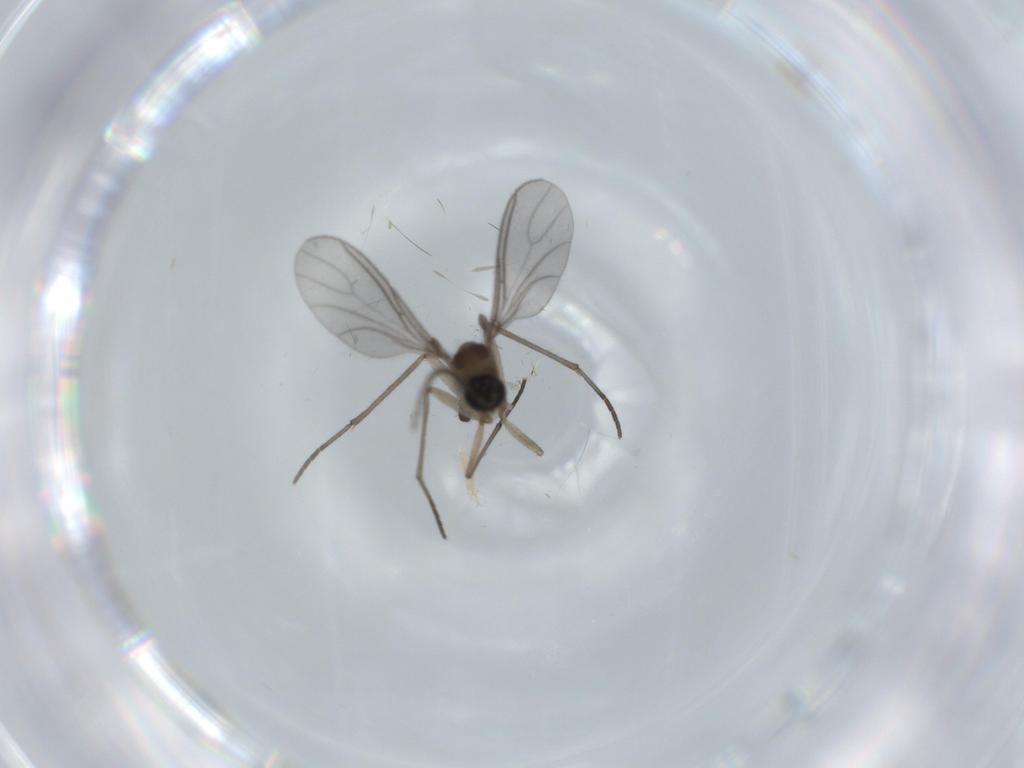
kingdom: Animalia
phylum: Arthropoda
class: Insecta
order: Diptera
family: Sciaridae
